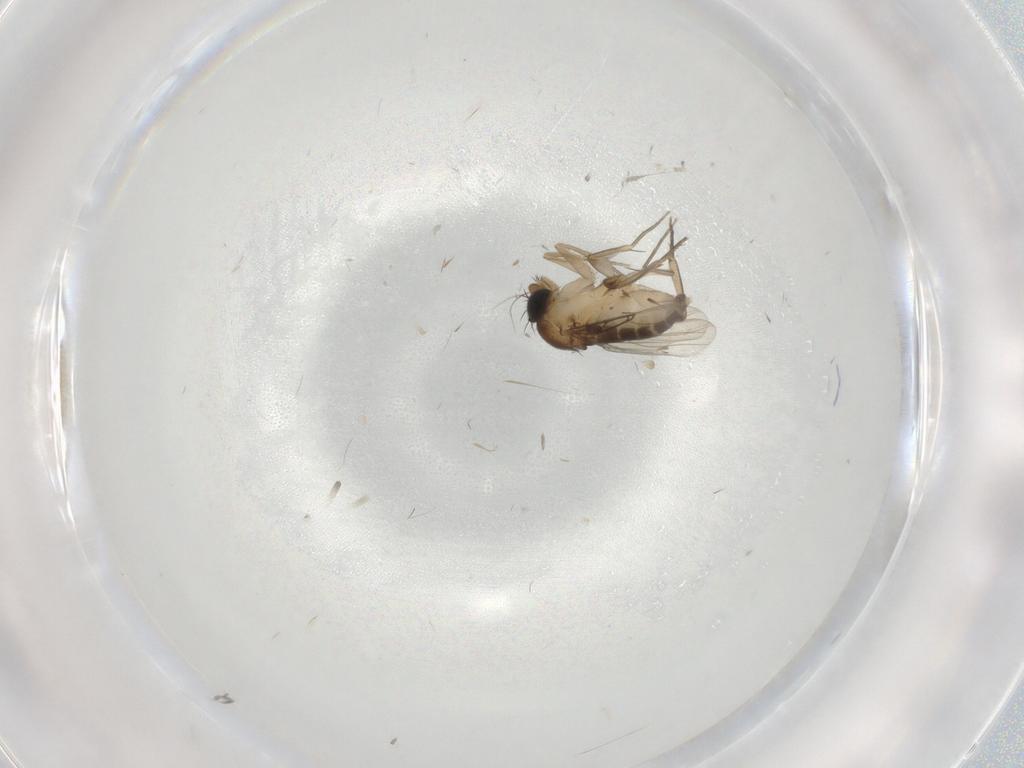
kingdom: Animalia
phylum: Arthropoda
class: Insecta
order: Diptera
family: Phoridae
